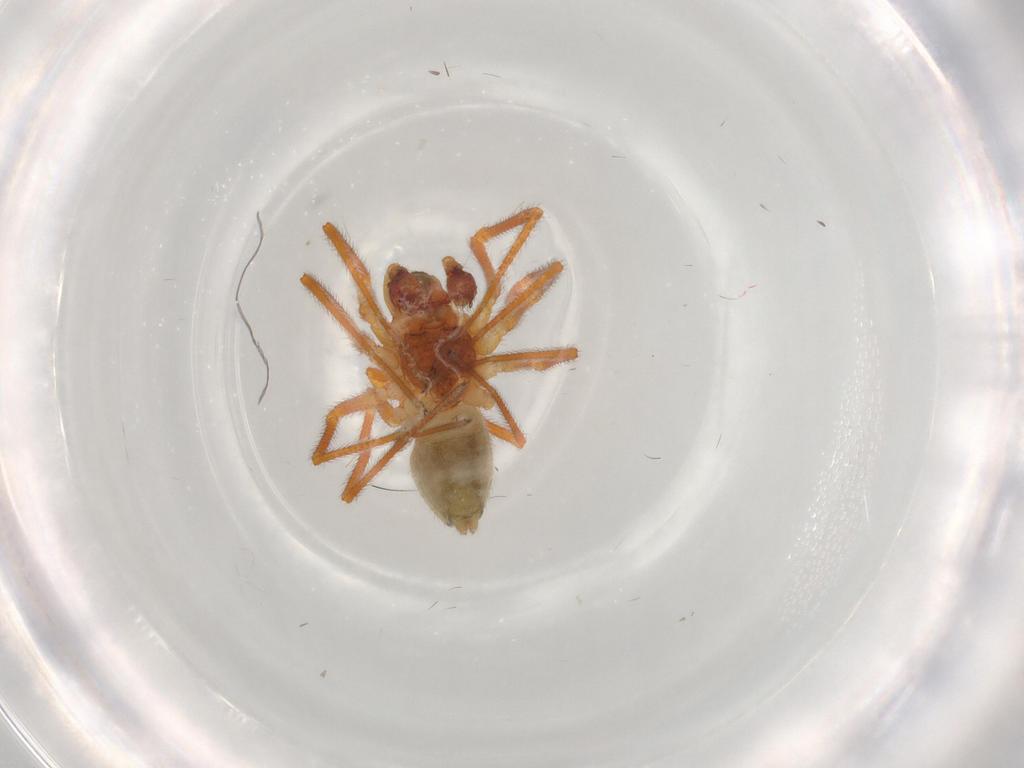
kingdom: Animalia
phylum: Arthropoda
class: Arachnida
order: Araneae
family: Linyphiidae
